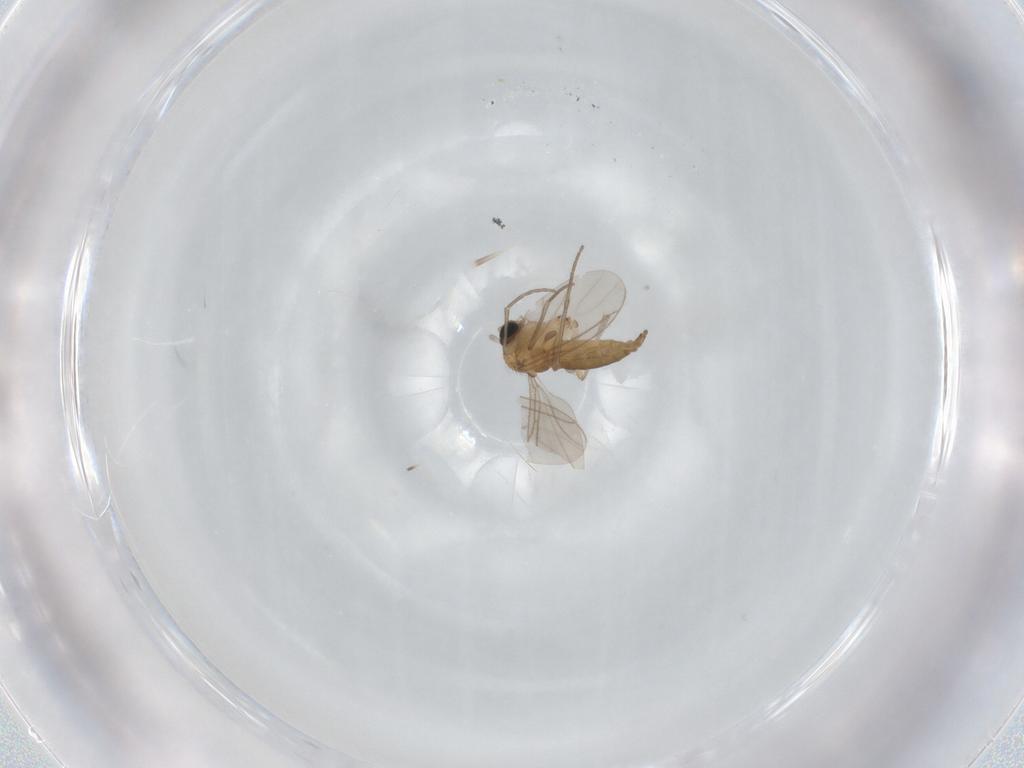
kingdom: Animalia
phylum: Arthropoda
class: Insecta
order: Diptera
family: Sciaridae
